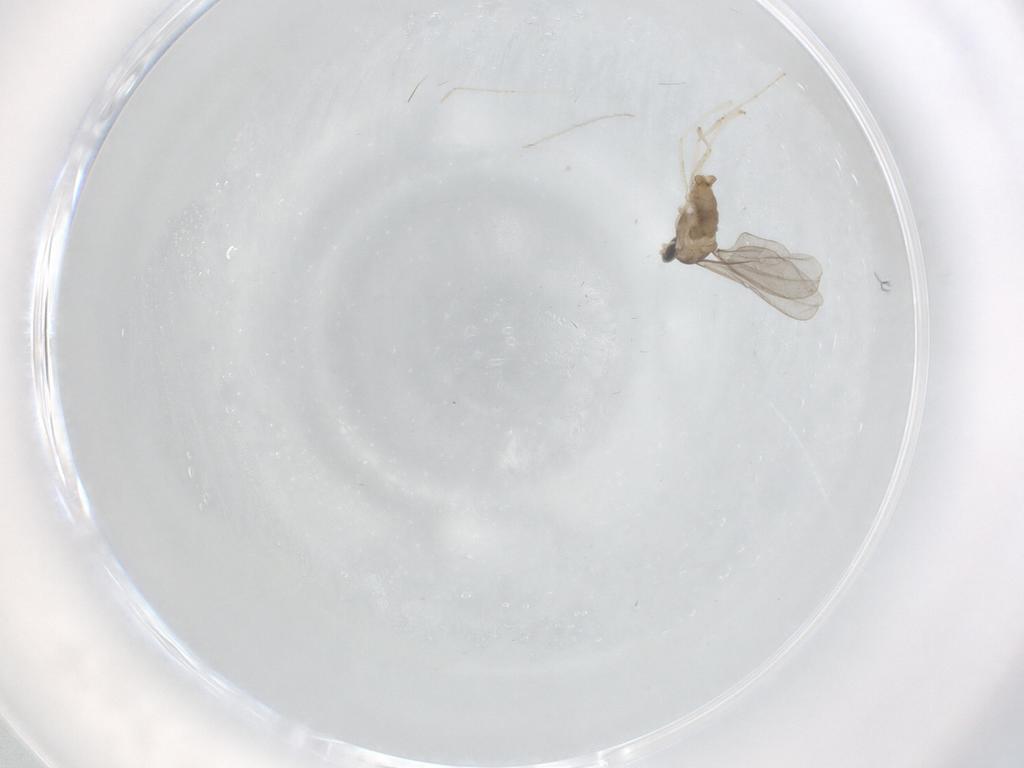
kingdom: Animalia
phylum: Arthropoda
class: Insecta
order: Diptera
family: Cecidomyiidae
